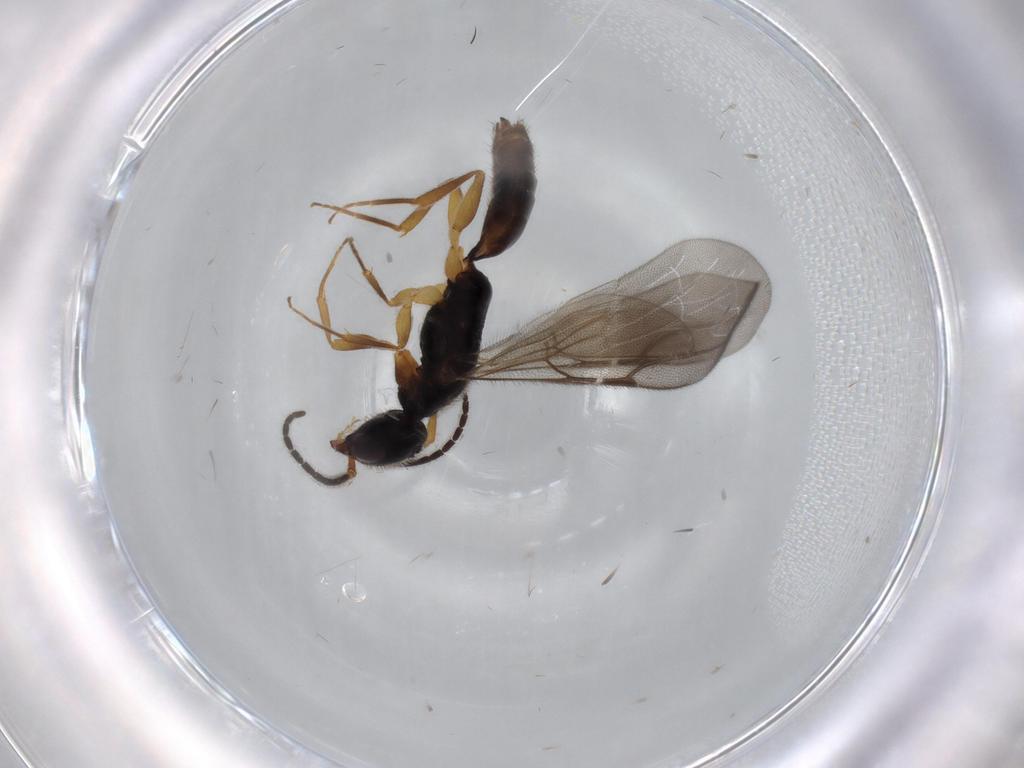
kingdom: Animalia
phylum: Arthropoda
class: Insecta
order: Hymenoptera
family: Bethylidae
